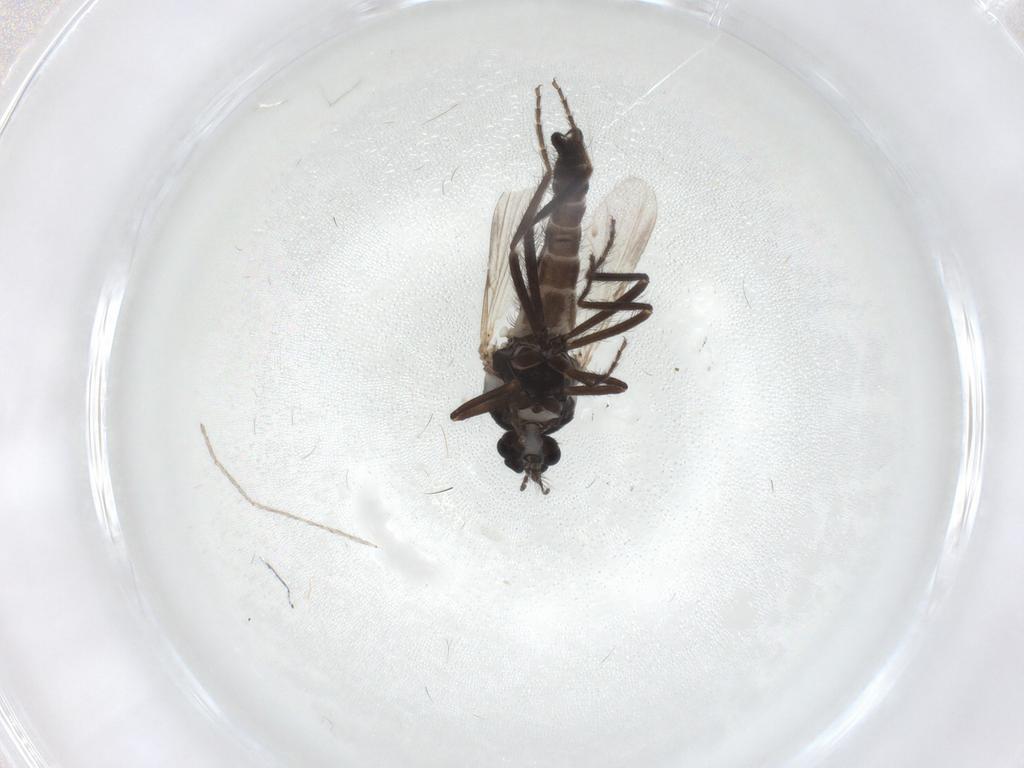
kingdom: Animalia
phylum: Arthropoda
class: Insecta
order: Diptera
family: Ceratopogonidae
